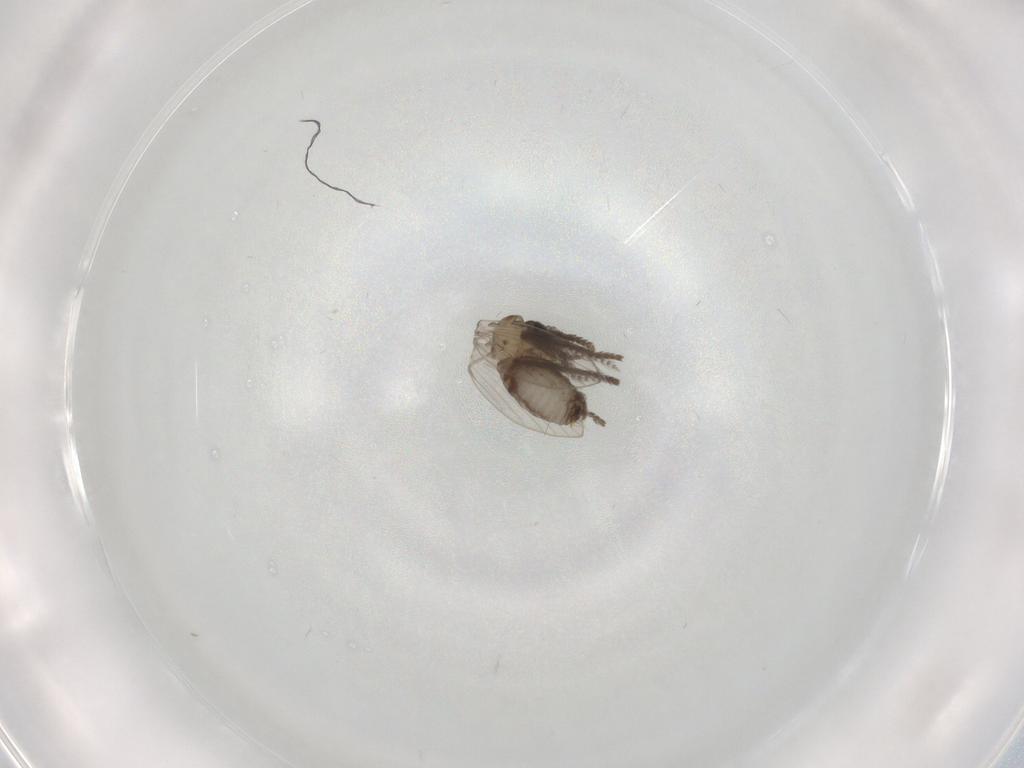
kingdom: Animalia
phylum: Arthropoda
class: Insecta
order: Diptera
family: Psychodidae
